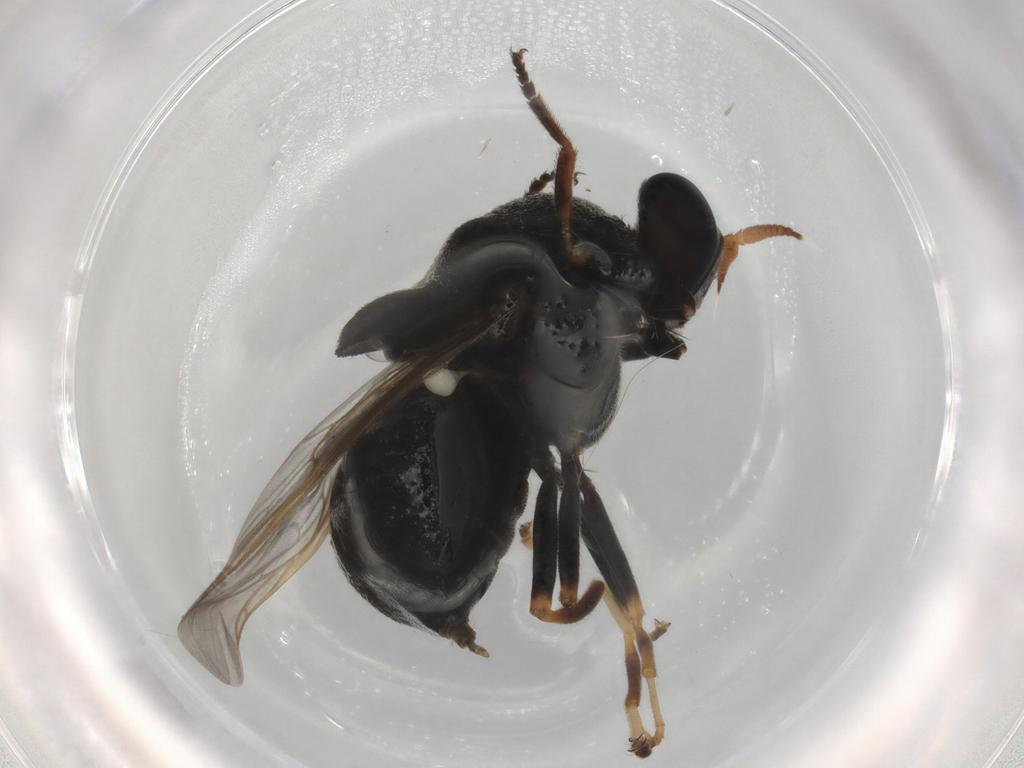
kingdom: Animalia
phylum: Arthropoda
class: Insecta
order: Diptera
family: Stratiomyidae
